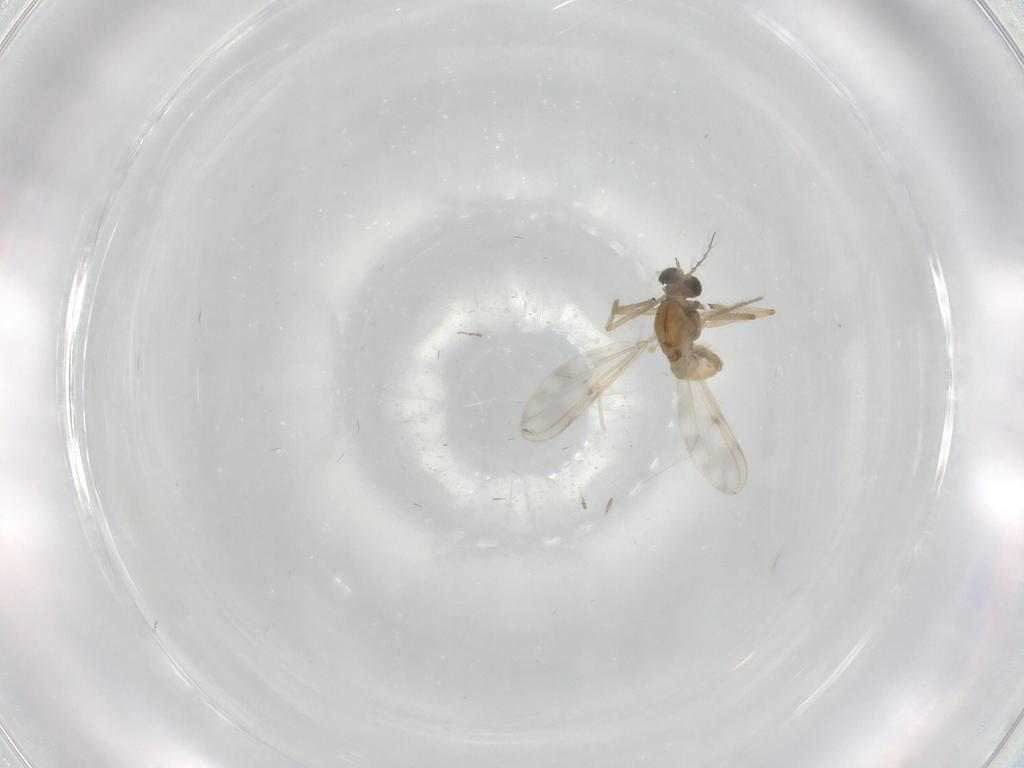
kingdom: Animalia
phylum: Arthropoda
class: Insecta
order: Diptera
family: Chironomidae
